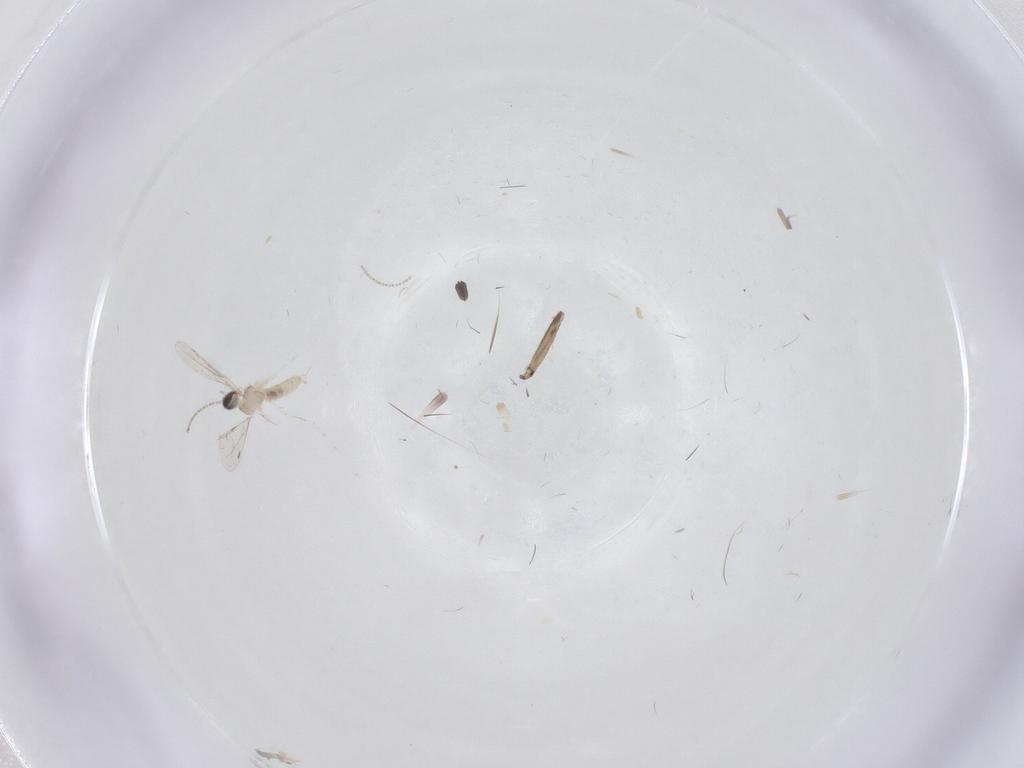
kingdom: Animalia
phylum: Arthropoda
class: Insecta
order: Diptera
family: Cecidomyiidae
